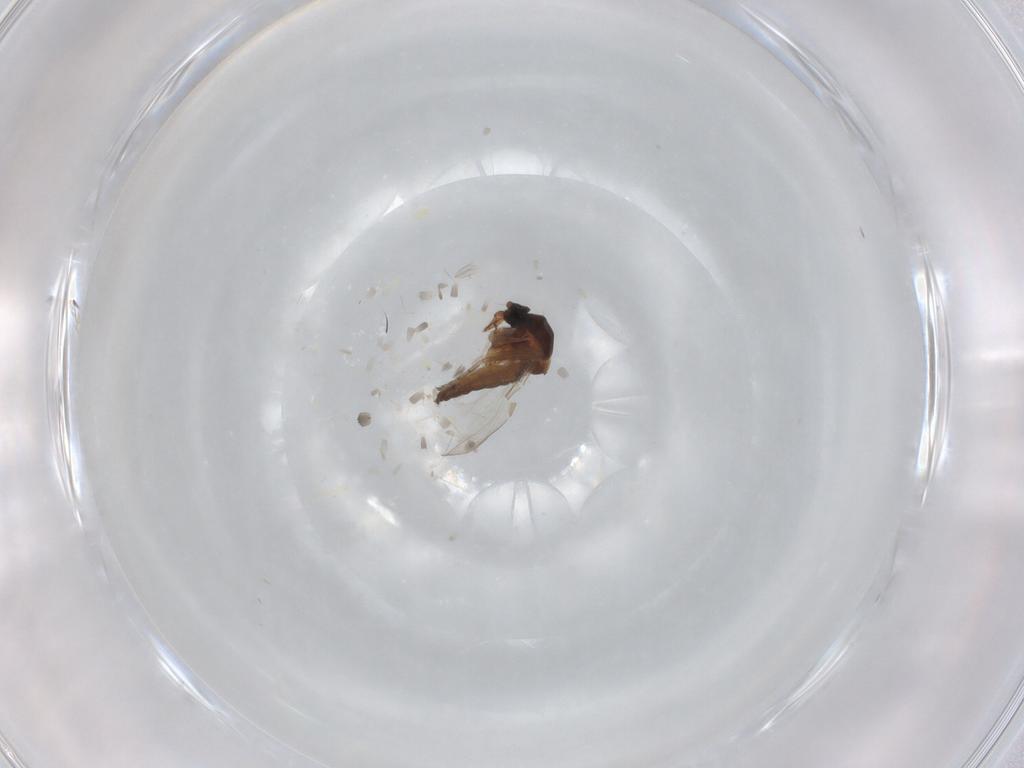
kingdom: Animalia
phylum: Arthropoda
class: Insecta
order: Diptera
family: Ceratopogonidae
